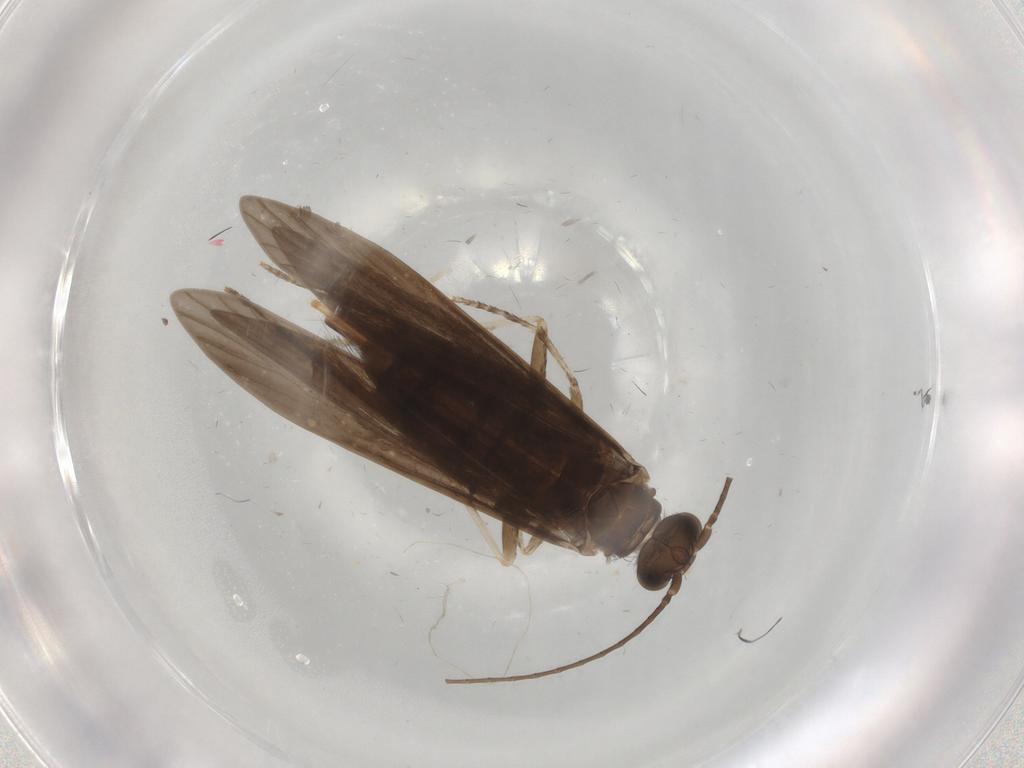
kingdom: Animalia
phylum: Arthropoda
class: Insecta
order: Trichoptera
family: Xiphocentronidae
